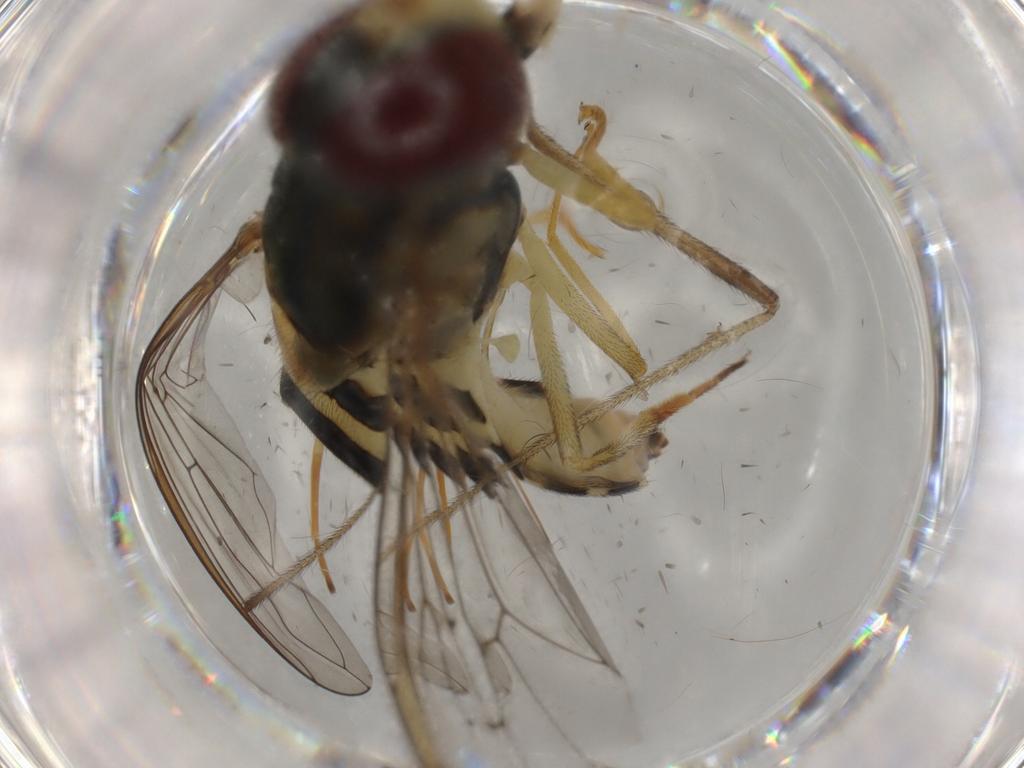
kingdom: Animalia
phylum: Arthropoda
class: Insecta
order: Diptera
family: Syrphidae
